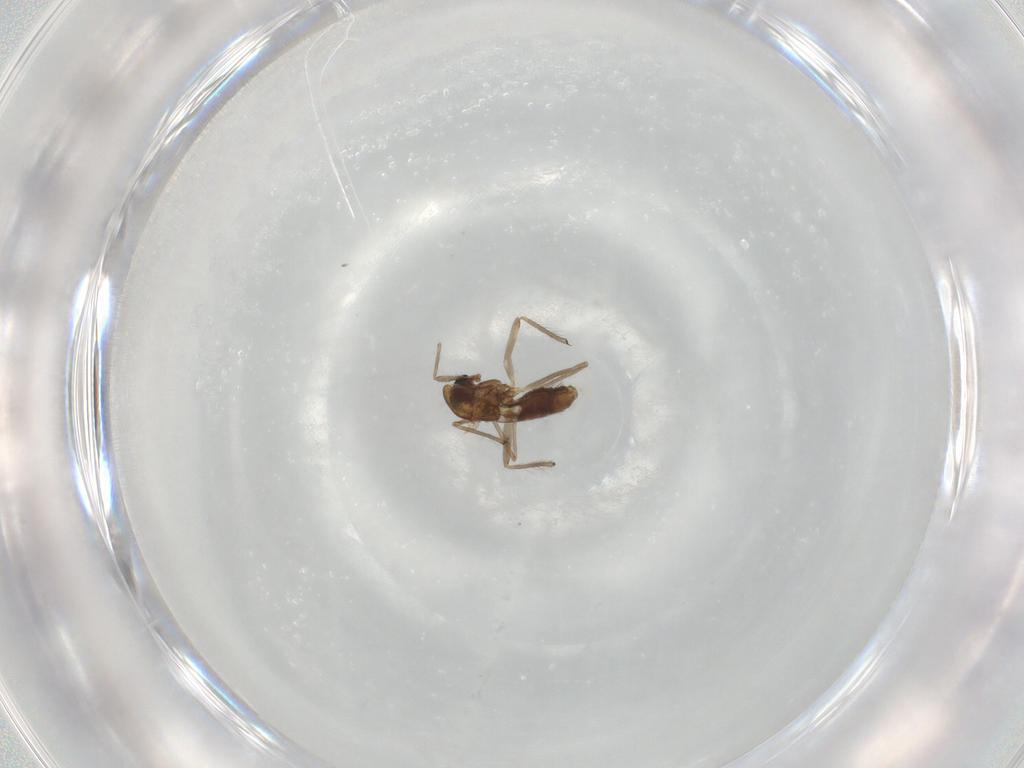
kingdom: Animalia
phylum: Arthropoda
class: Insecta
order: Diptera
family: Chironomidae
